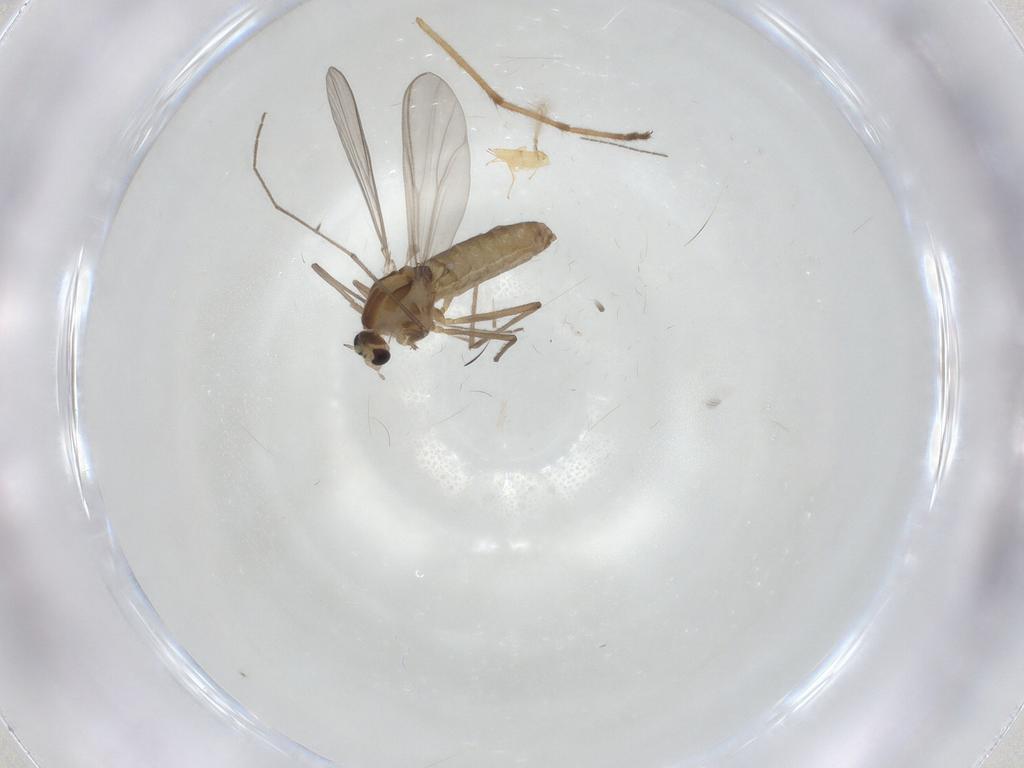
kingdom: Animalia
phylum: Arthropoda
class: Insecta
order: Diptera
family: Chironomidae
